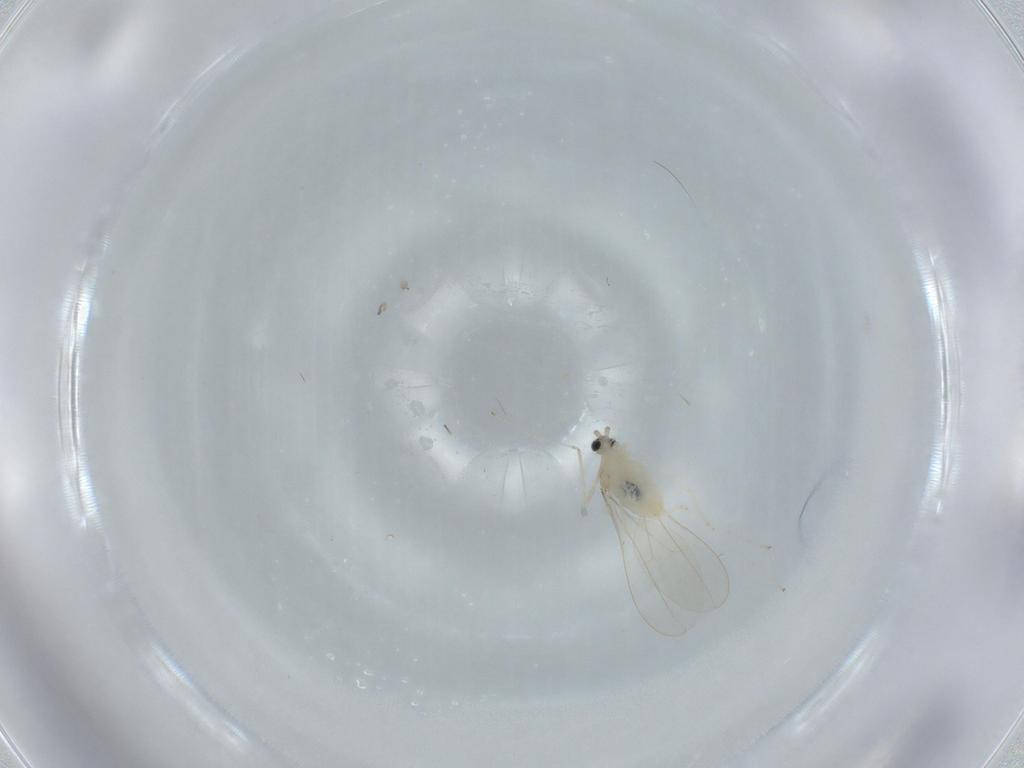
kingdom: Animalia
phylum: Arthropoda
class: Insecta
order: Diptera
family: Cecidomyiidae
